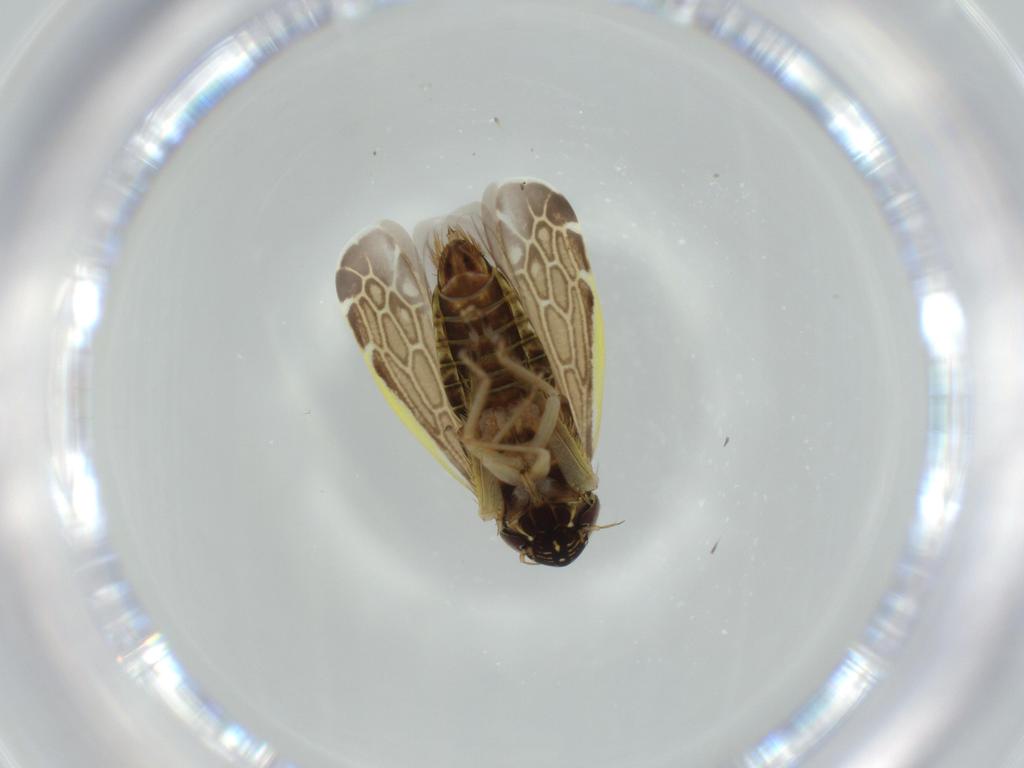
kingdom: Animalia
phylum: Arthropoda
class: Insecta
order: Hemiptera
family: Cicadellidae
